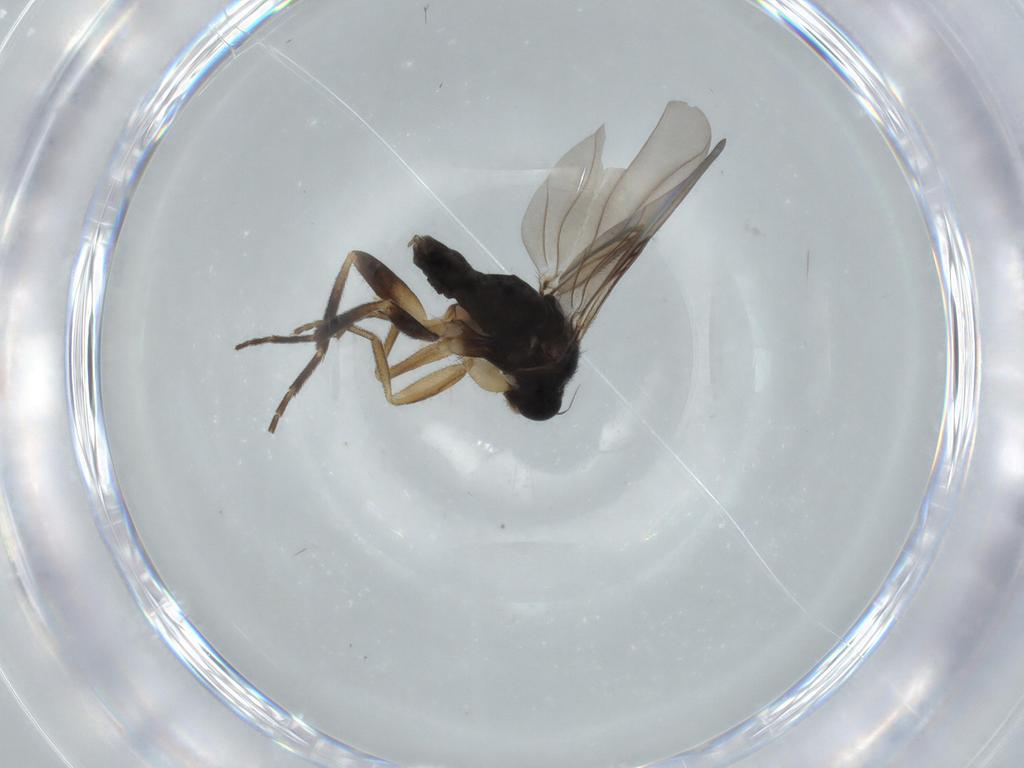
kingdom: Animalia
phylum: Arthropoda
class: Insecta
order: Diptera
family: Phoridae
